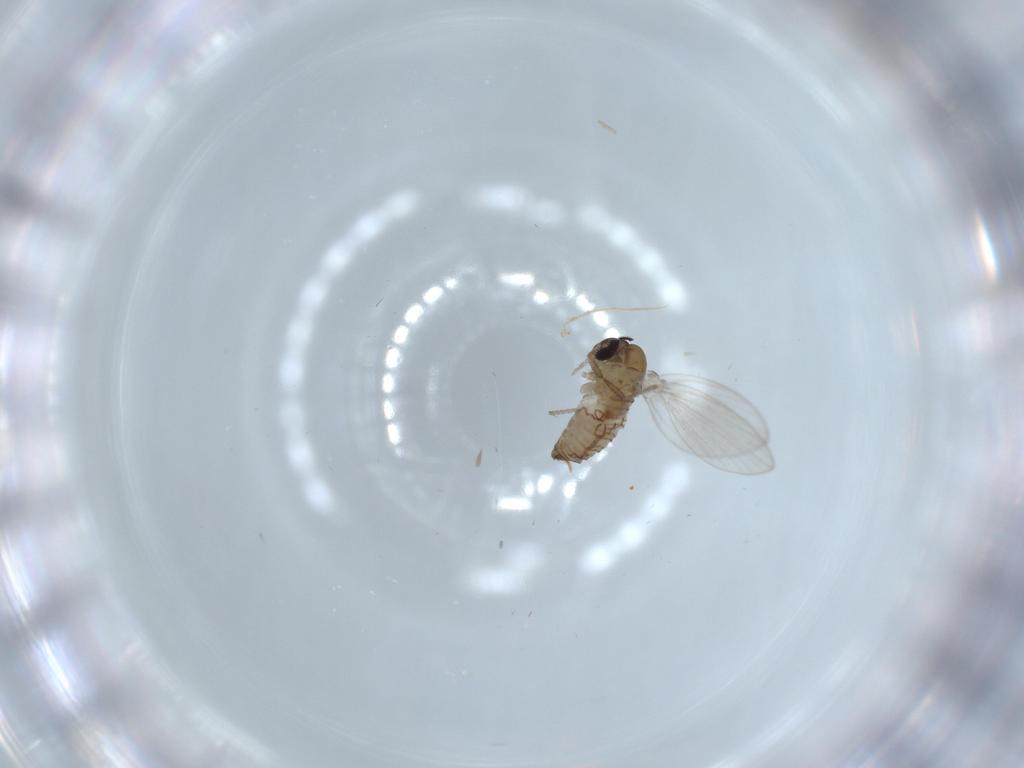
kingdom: Animalia
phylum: Arthropoda
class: Insecta
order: Diptera
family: Psychodidae
